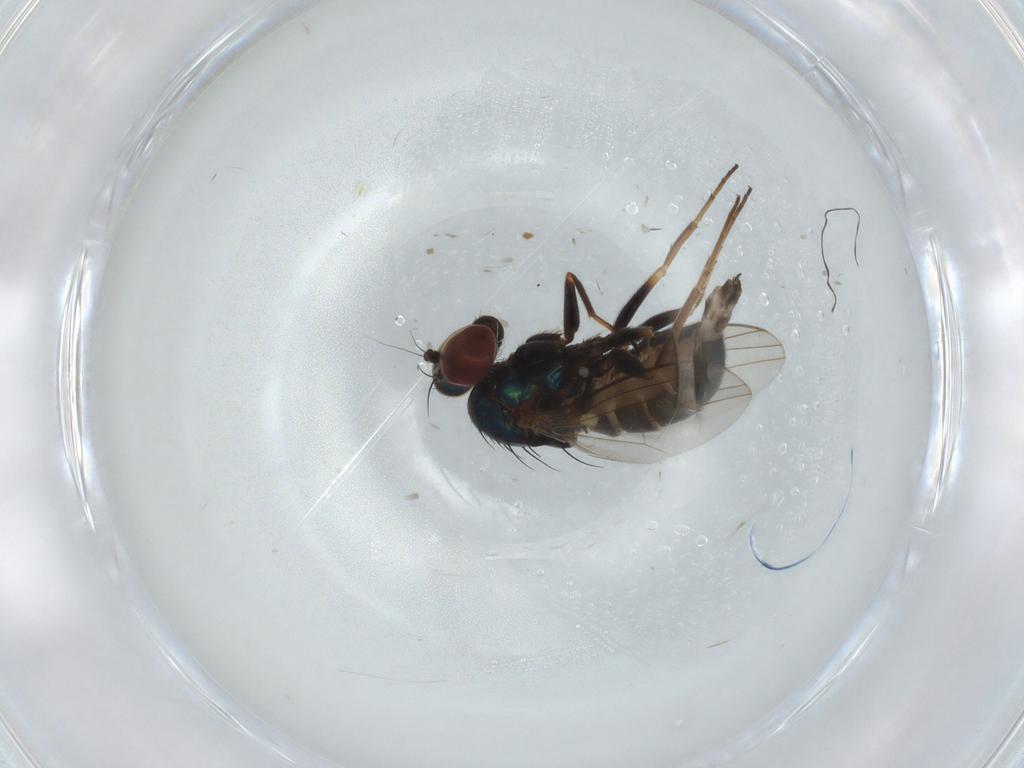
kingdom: Animalia
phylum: Arthropoda
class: Insecta
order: Diptera
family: Dolichopodidae
